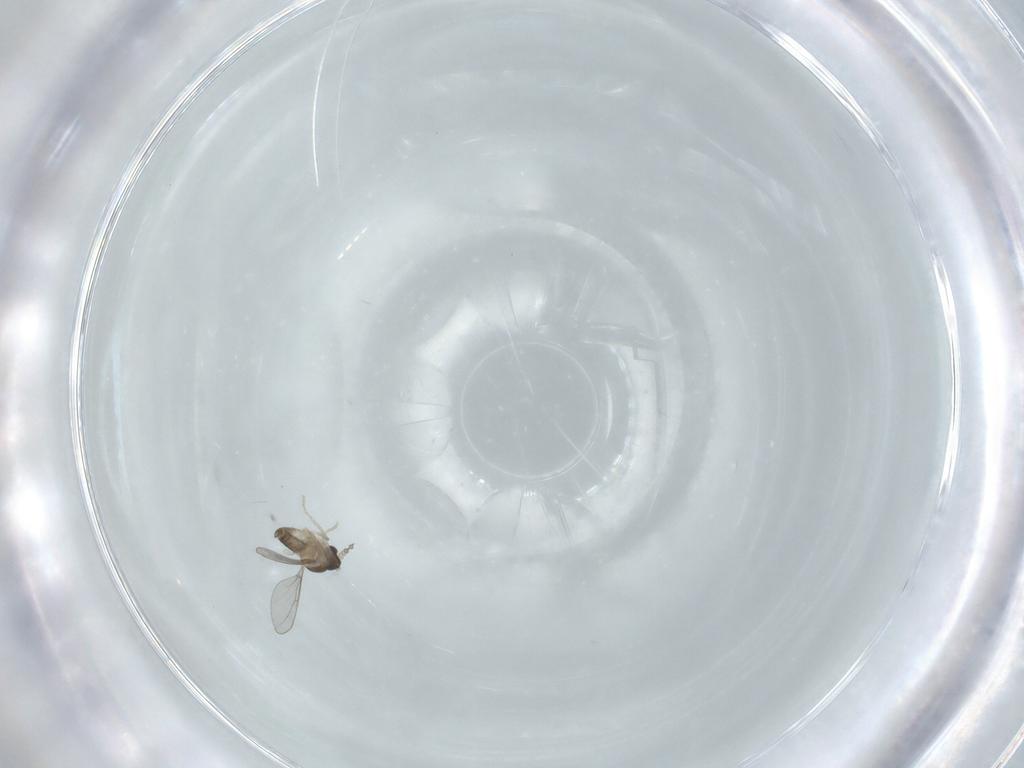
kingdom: Animalia
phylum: Arthropoda
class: Insecta
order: Diptera
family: Cecidomyiidae
